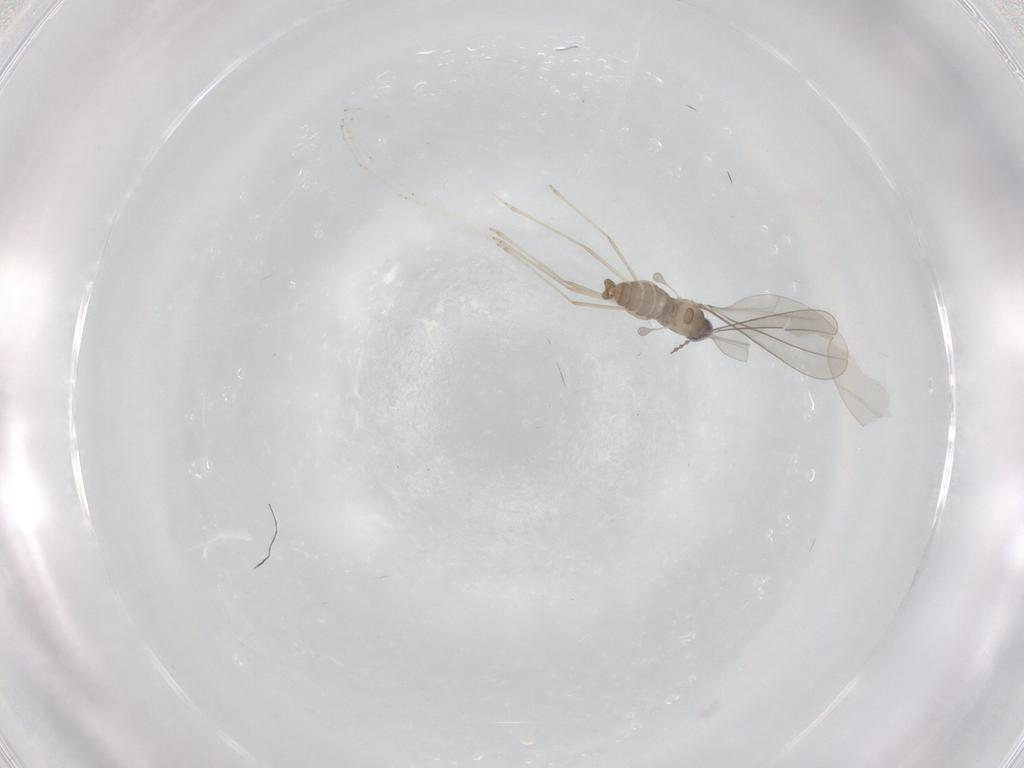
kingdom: Animalia
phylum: Arthropoda
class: Insecta
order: Diptera
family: Cecidomyiidae
